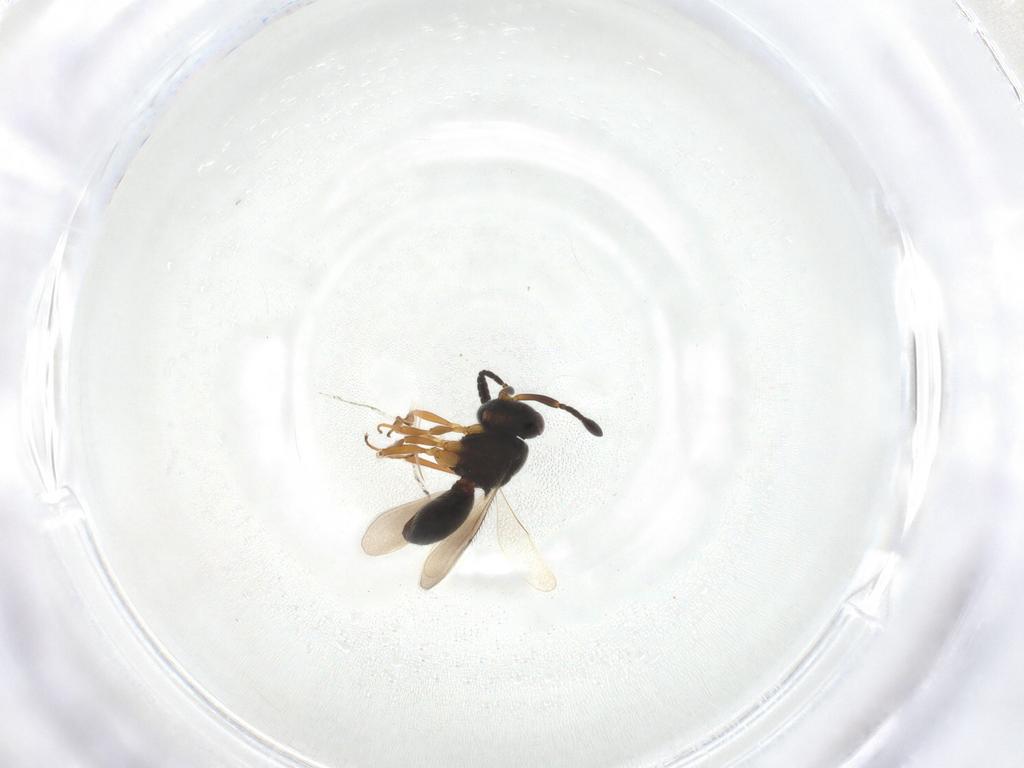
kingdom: Animalia
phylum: Arthropoda
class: Insecta
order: Hymenoptera
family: Scelionidae
